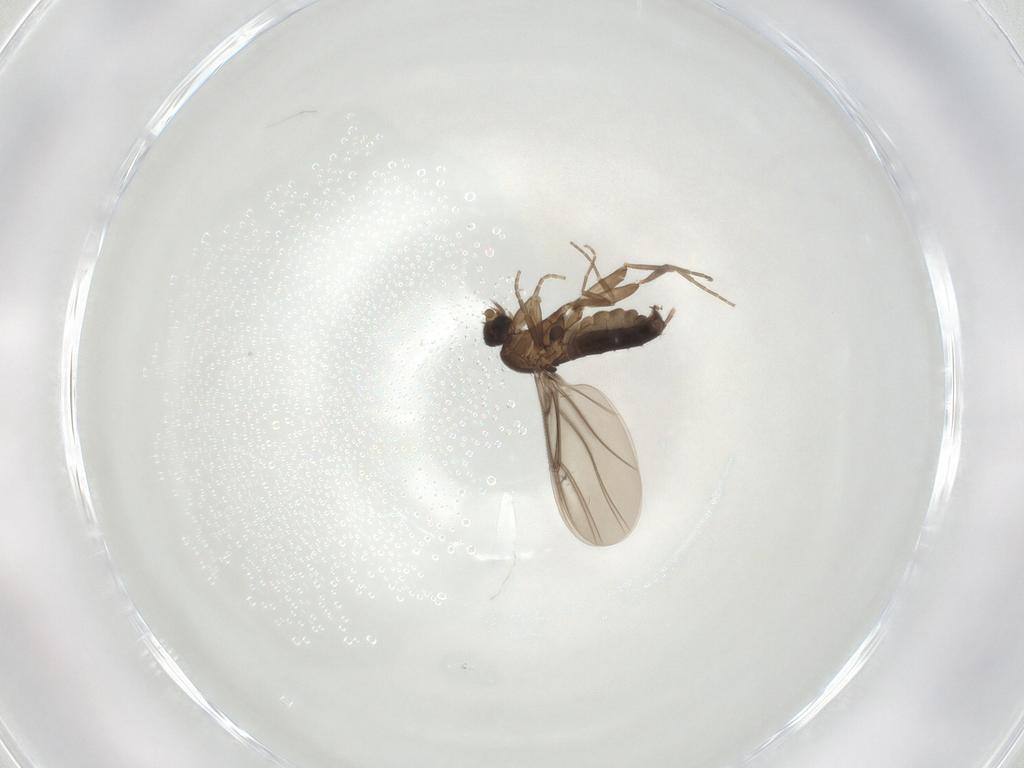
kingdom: Animalia
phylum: Arthropoda
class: Insecta
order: Diptera
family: Phoridae
